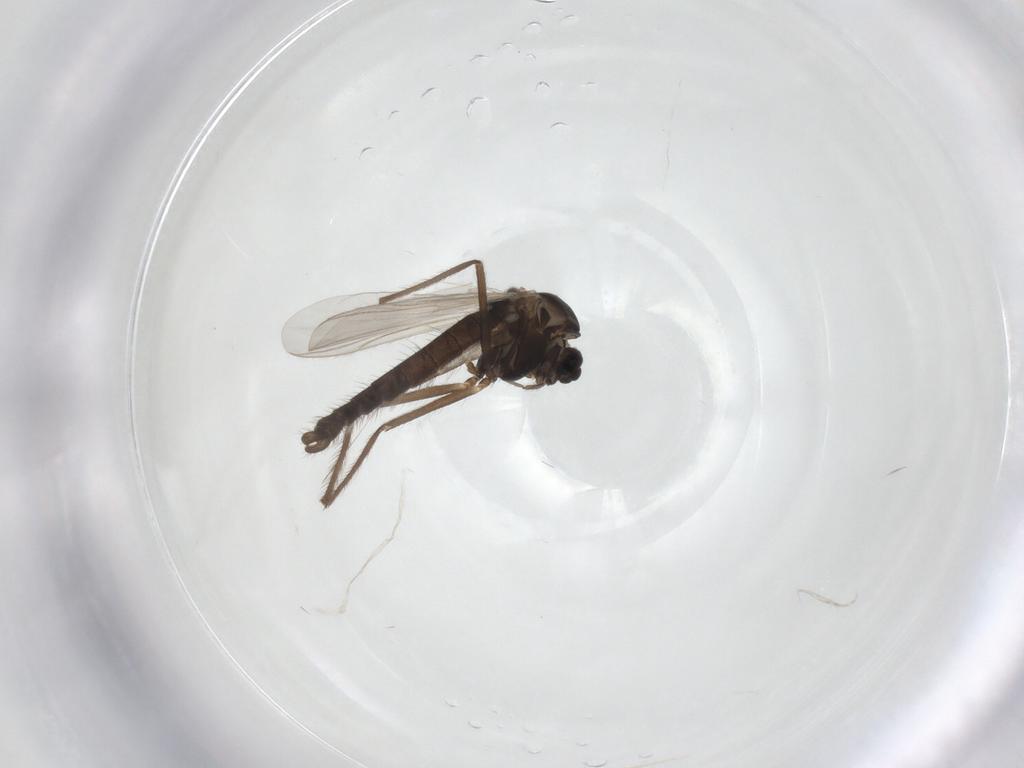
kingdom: Animalia
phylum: Arthropoda
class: Insecta
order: Diptera
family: Chironomidae
